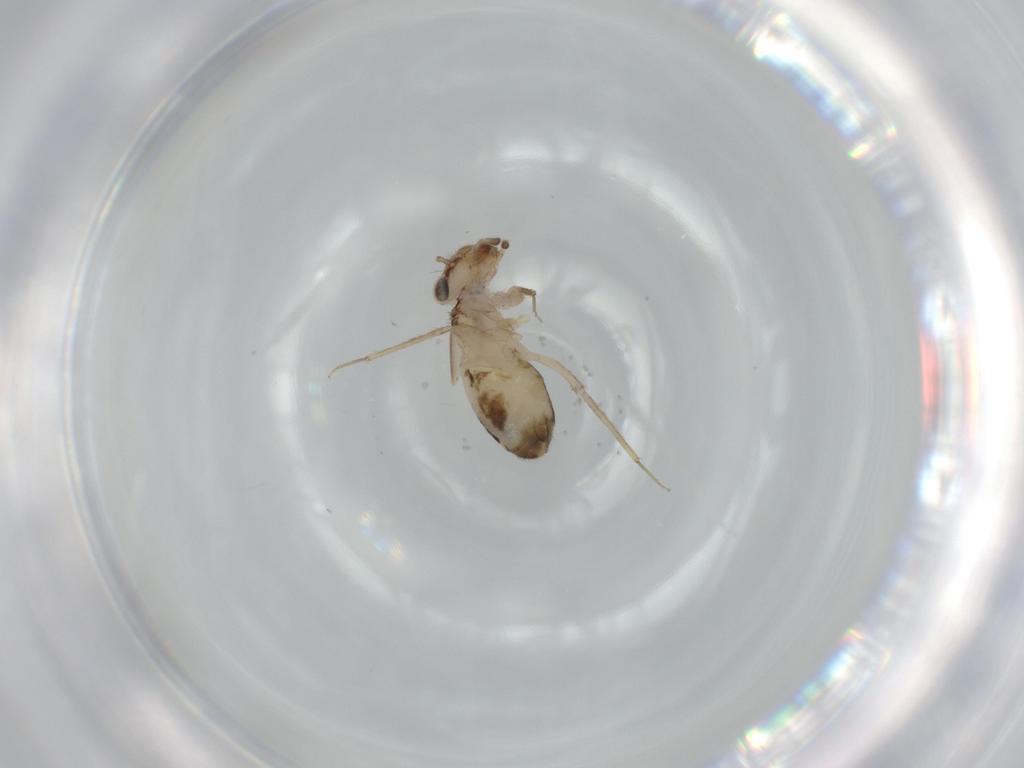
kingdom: Animalia
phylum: Arthropoda
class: Insecta
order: Psocodea
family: Lepidopsocidae
